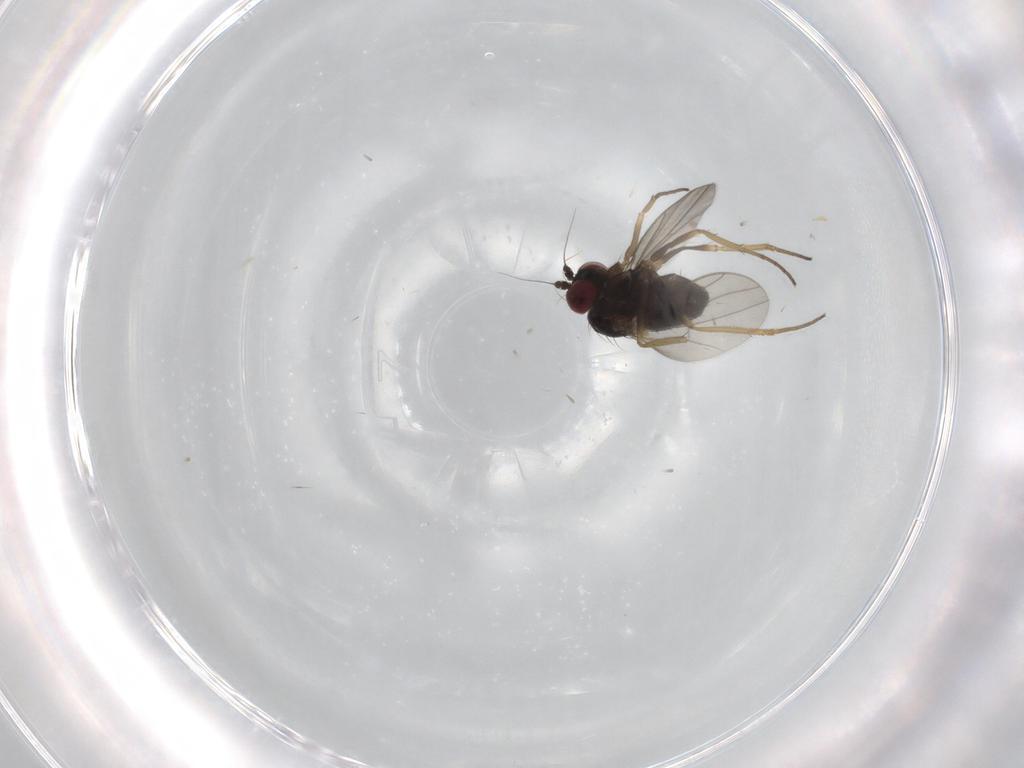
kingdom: Animalia
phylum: Arthropoda
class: Insecta
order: Diptera
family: Dolichopodidae
